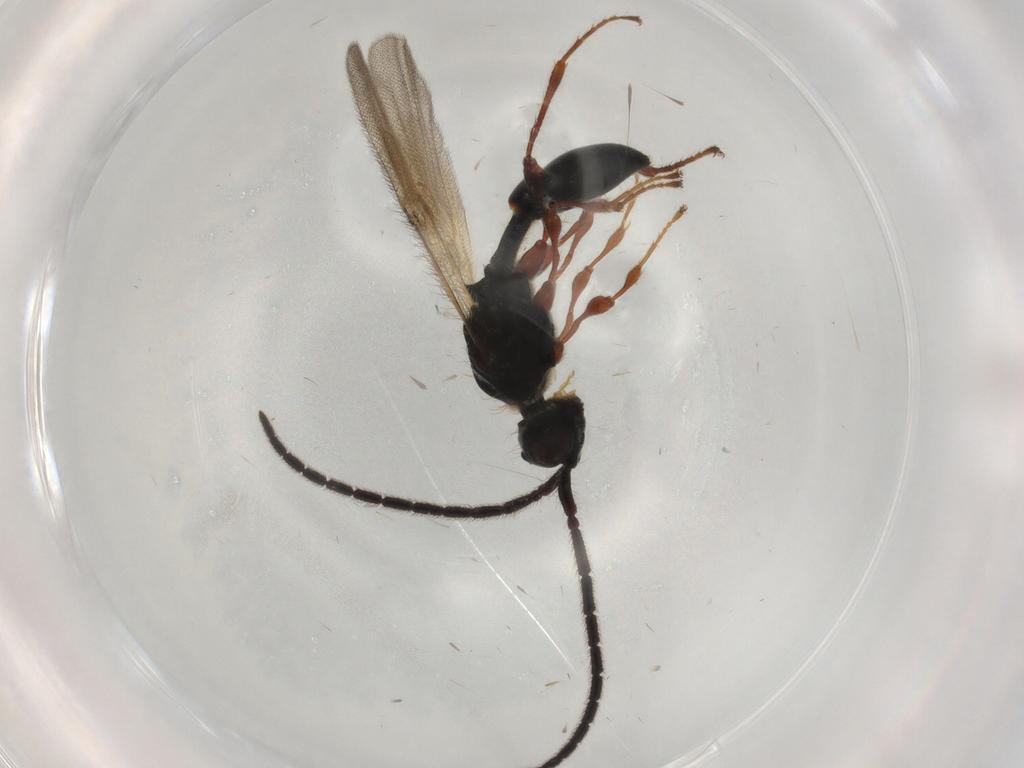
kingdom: Animalia
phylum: Arthropoda
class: Insecta
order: Hymenoptera
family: Diapriidae
